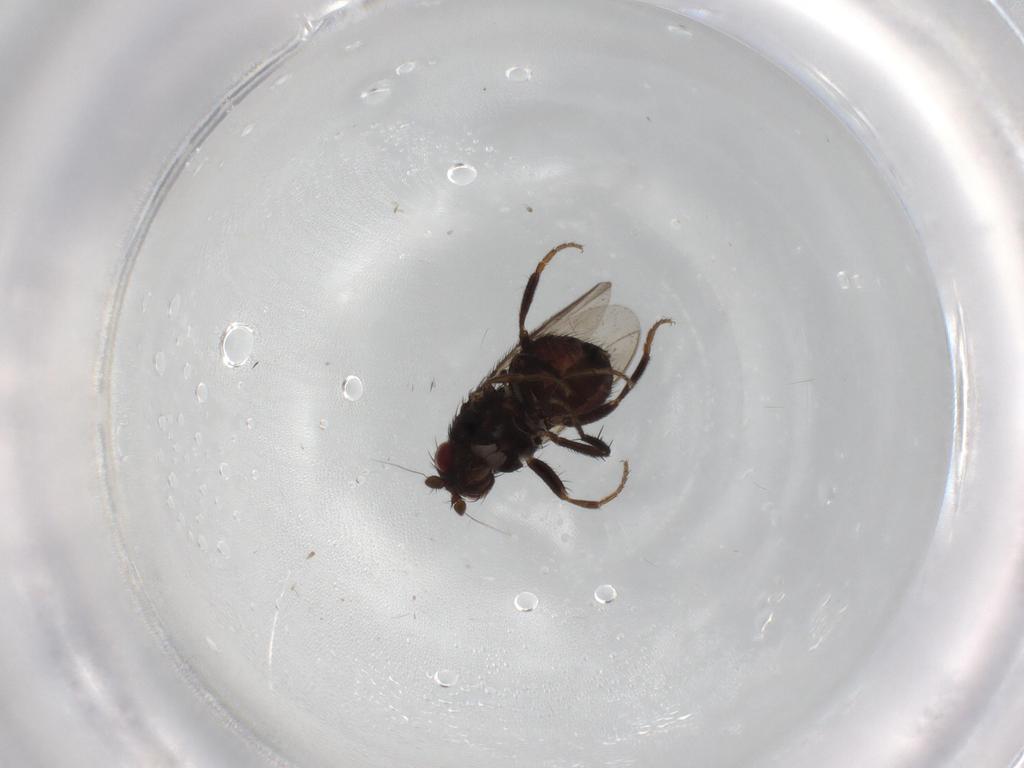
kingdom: Animalia
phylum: Arthropoda
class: Insecta
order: Diptera
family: Sphaeroceridae
